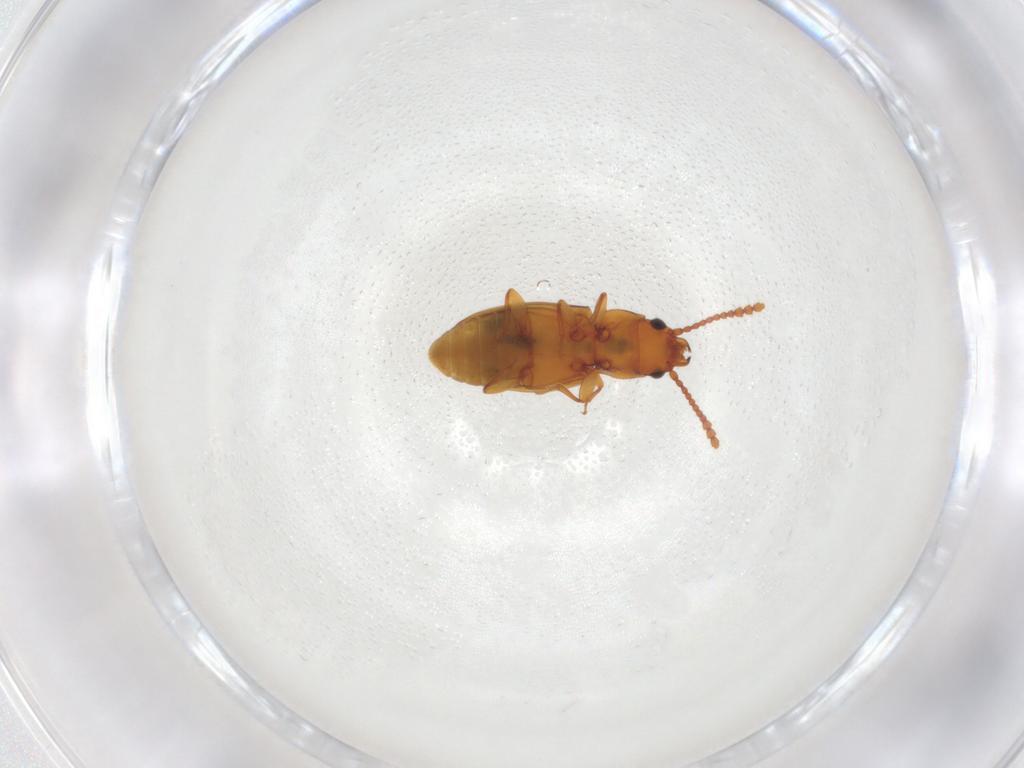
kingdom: Animalia
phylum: Arthropoda
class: Insecta
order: Coleoptera
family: Laemophloeidae
